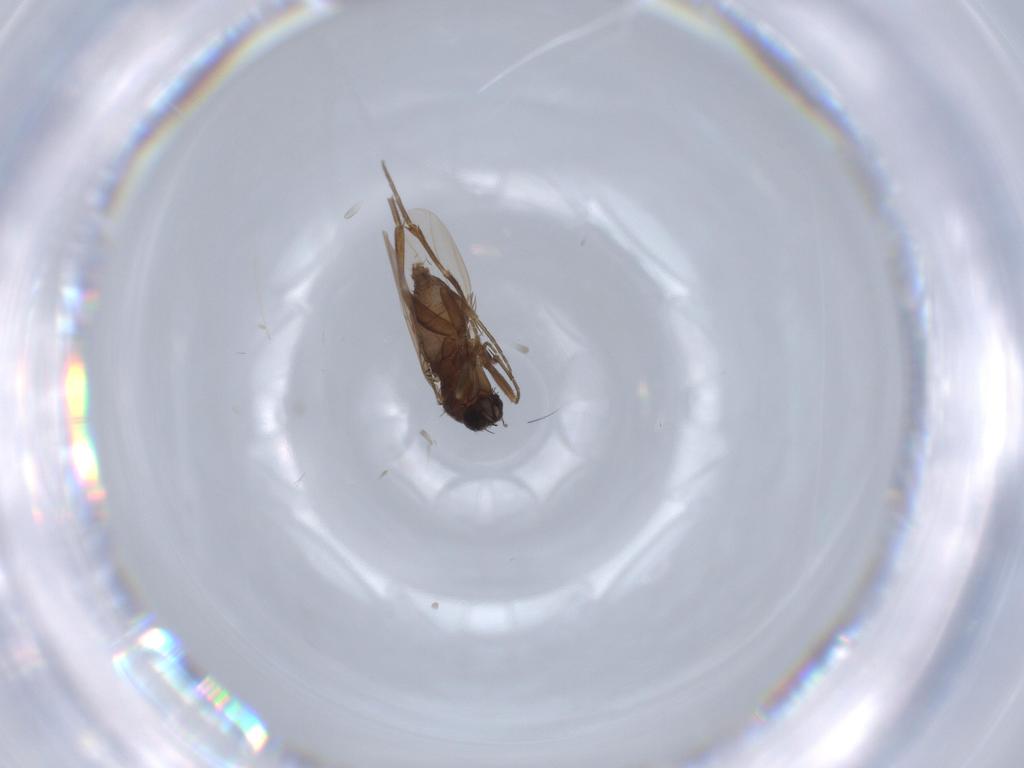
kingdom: Animalia
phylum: Arthropoda
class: Insecta
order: Diptera
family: Phoridae
